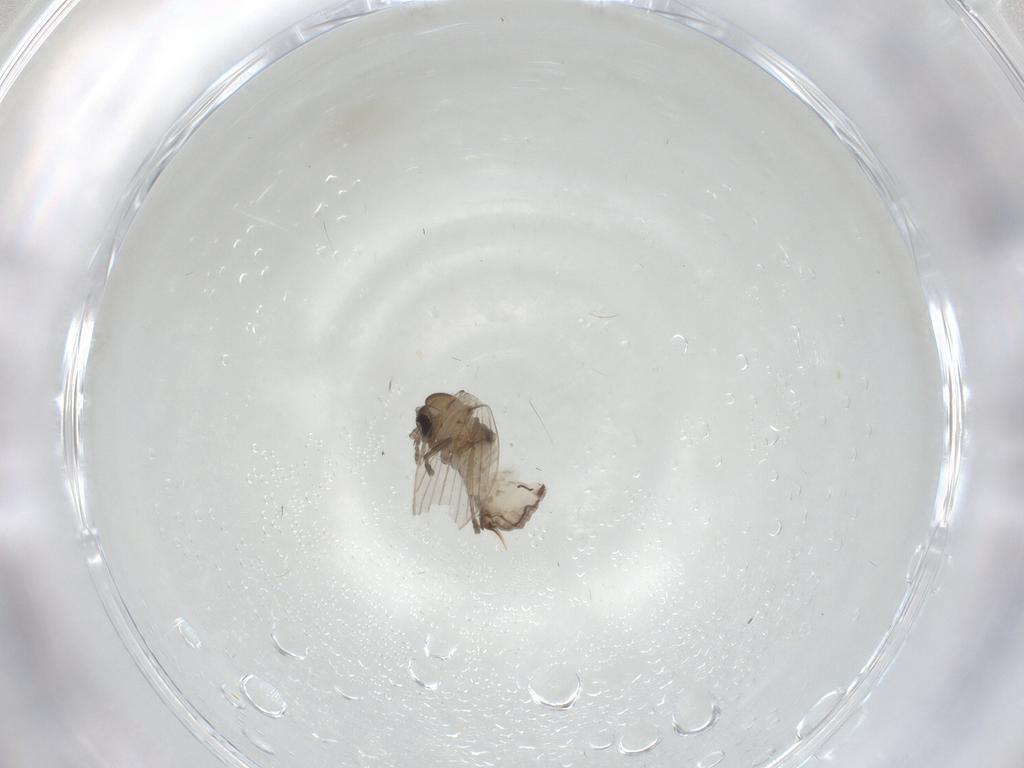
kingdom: Animalia
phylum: Arthropoda
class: Insecta
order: Diptera
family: Psychodidae
